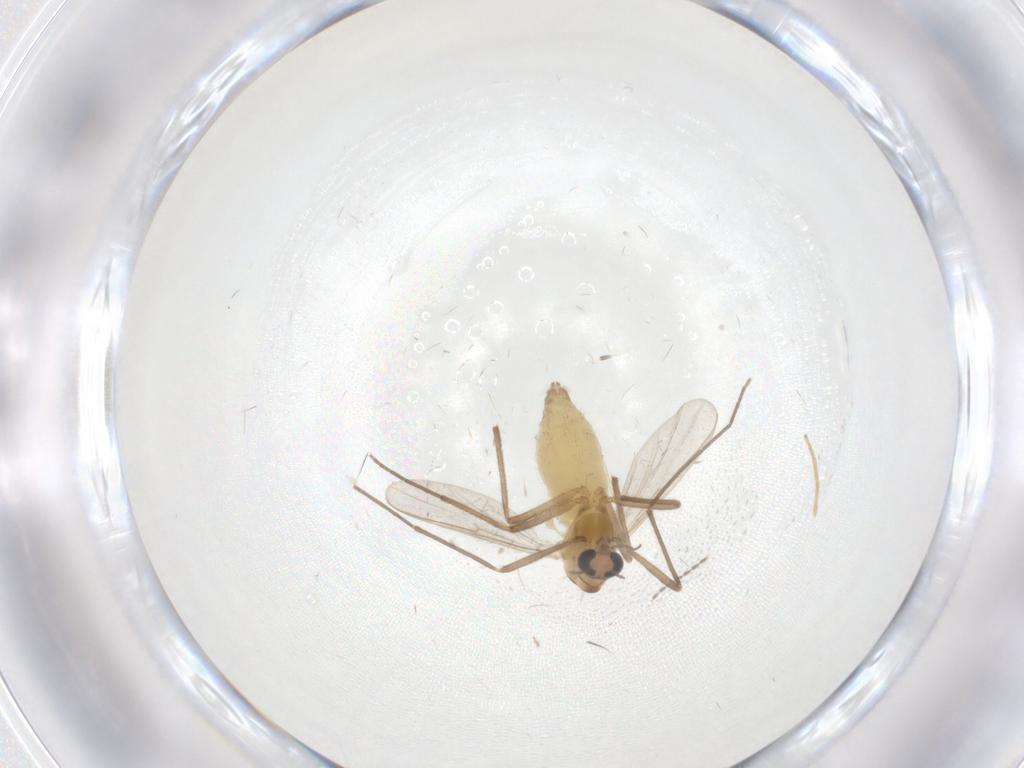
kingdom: Animalia
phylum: Arthropoda
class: Insecta
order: Diptera
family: Chironomidae
